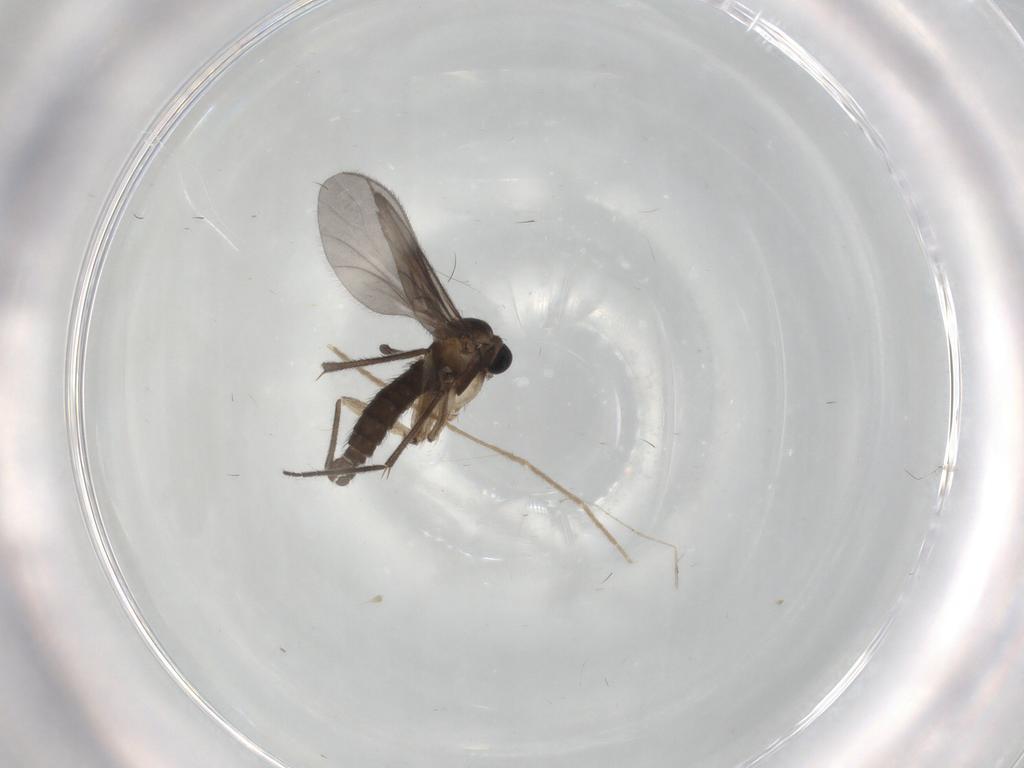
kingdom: Animalia
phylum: Arthropoda
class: Insecta
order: Diptera
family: Sciaridae
